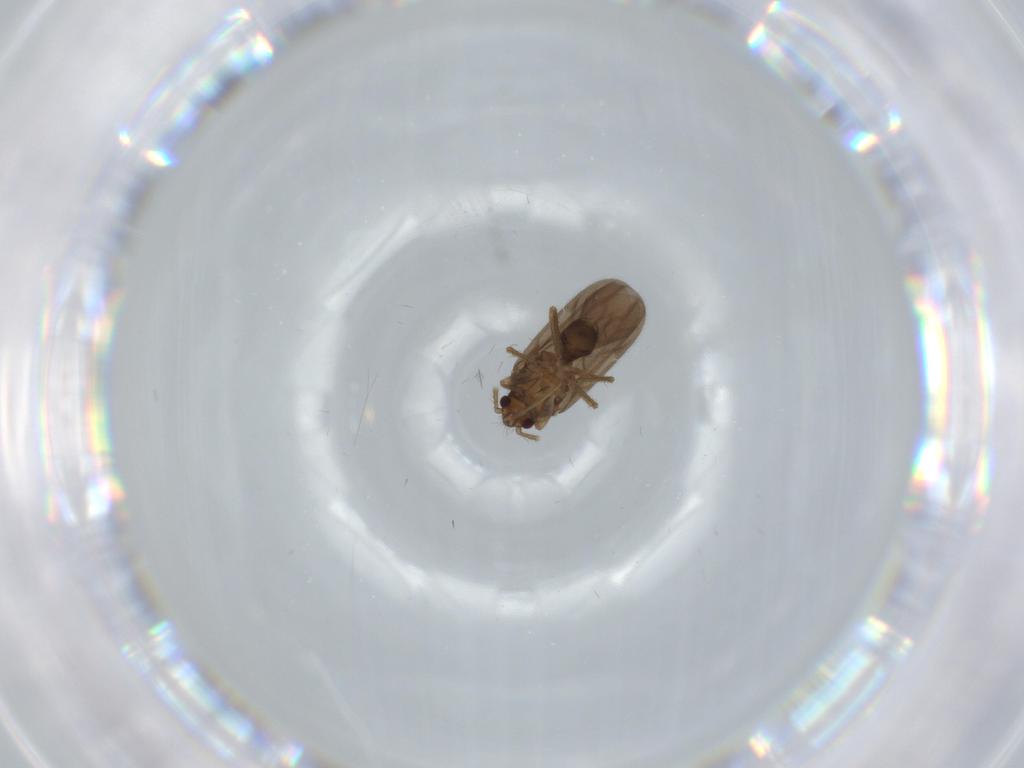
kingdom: Animalia
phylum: Arthropoda
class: Insecta
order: Hemiptera
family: Ceratocombidae
